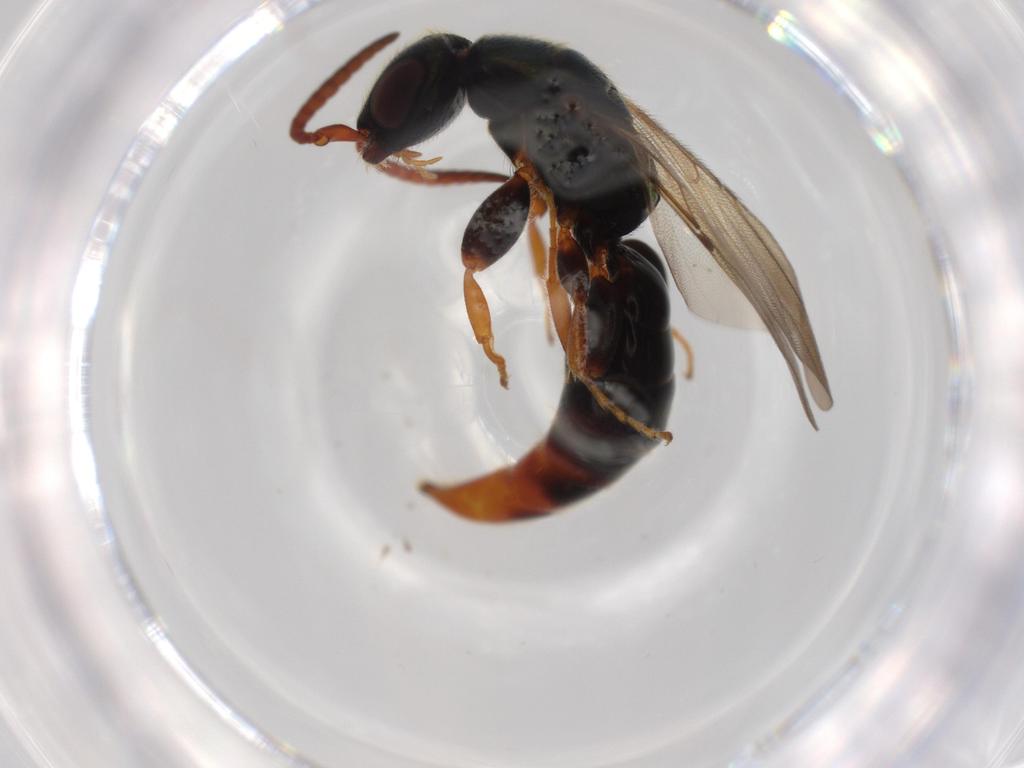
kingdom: Animalia
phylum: Arthropoda
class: Insecta
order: Hymenoptera
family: Bethylidae
